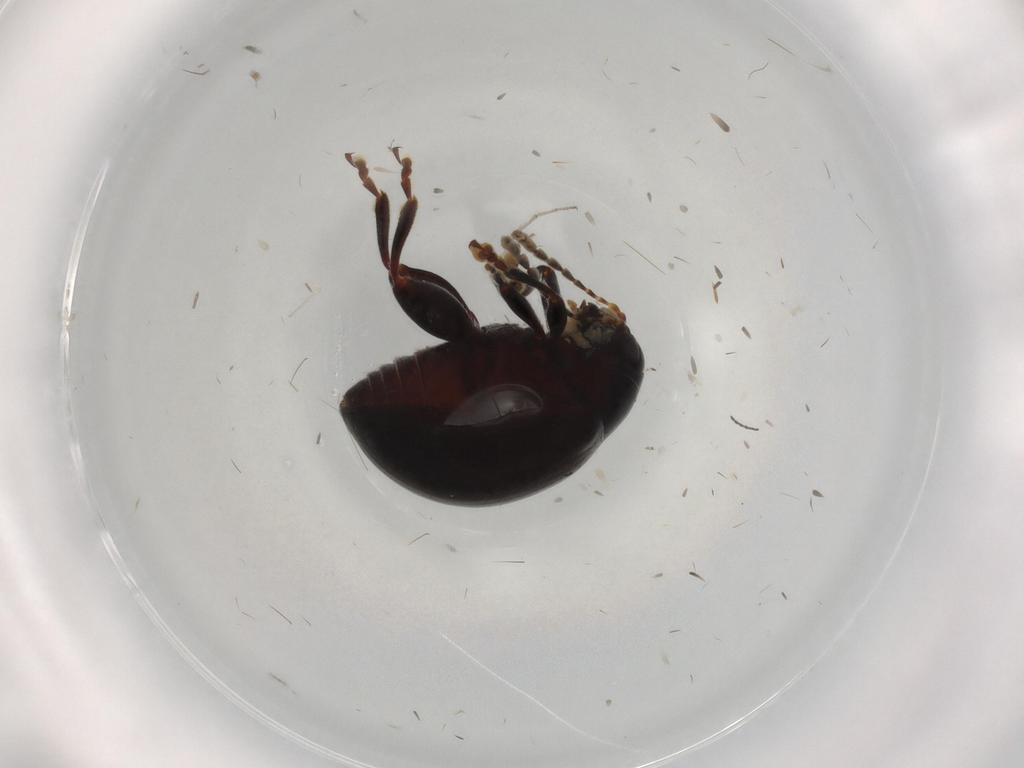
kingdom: Animalia
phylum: Arthropoda
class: Insecta
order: Coleoptera
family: Chrysomelidae
